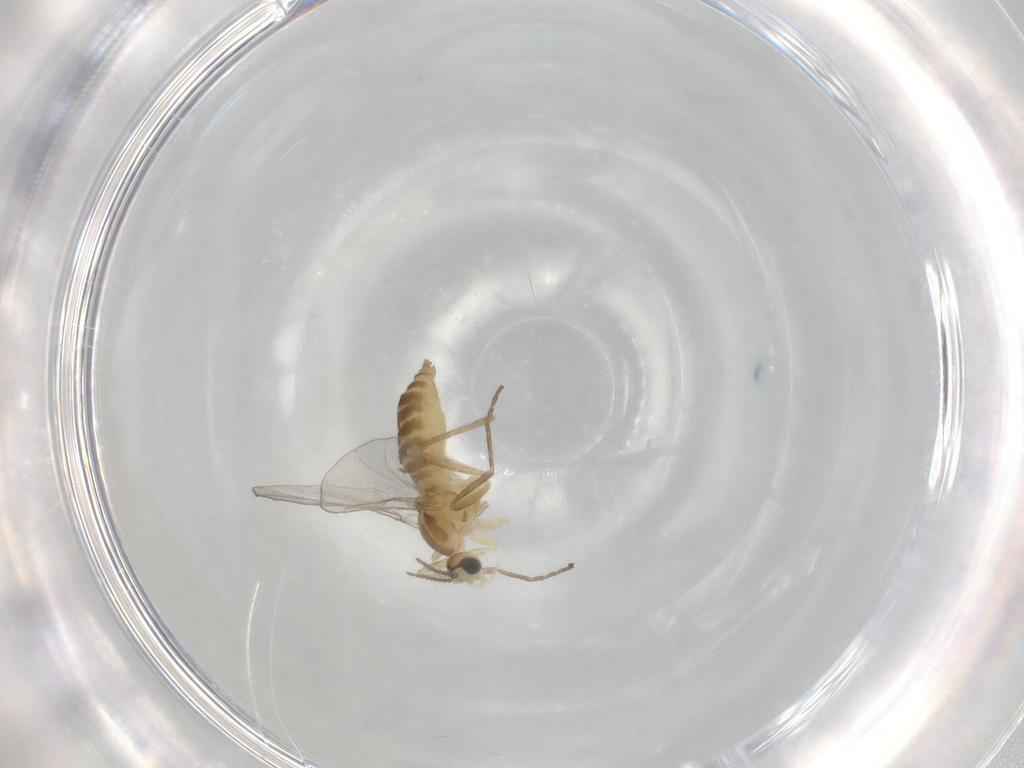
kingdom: Animalia
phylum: Arthropoda
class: Insecta
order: Diptera
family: Cecidomyiidae
